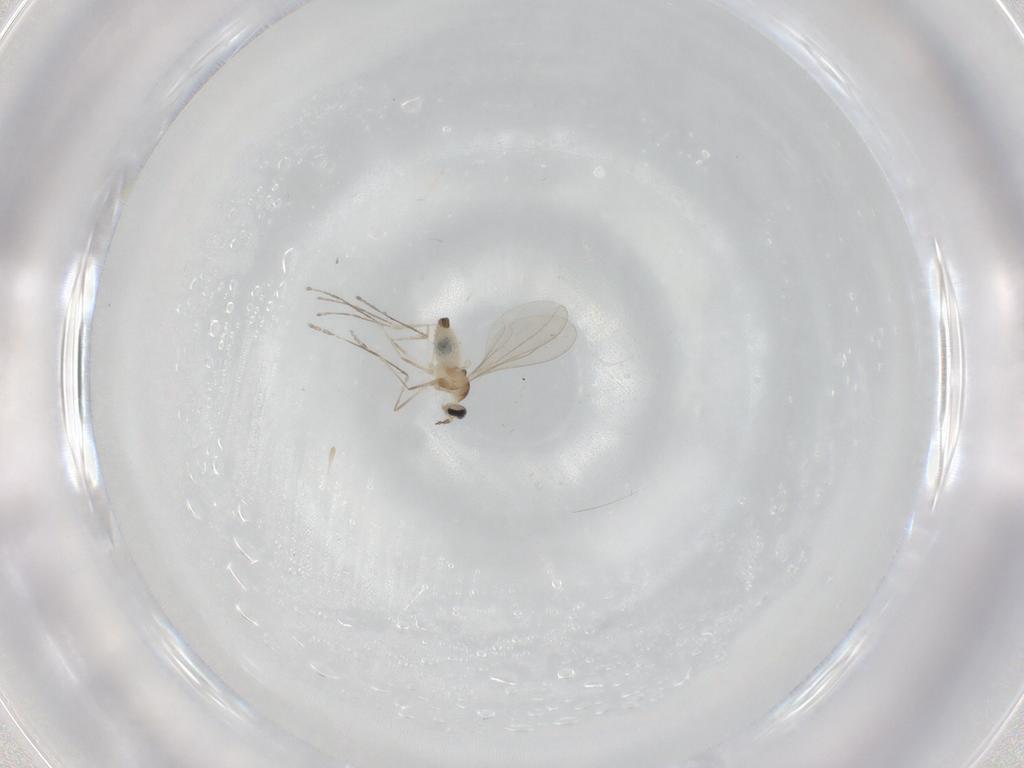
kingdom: Animalia
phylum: Arthropoda
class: Insecta
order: Diptera
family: Cecidomyiidae
